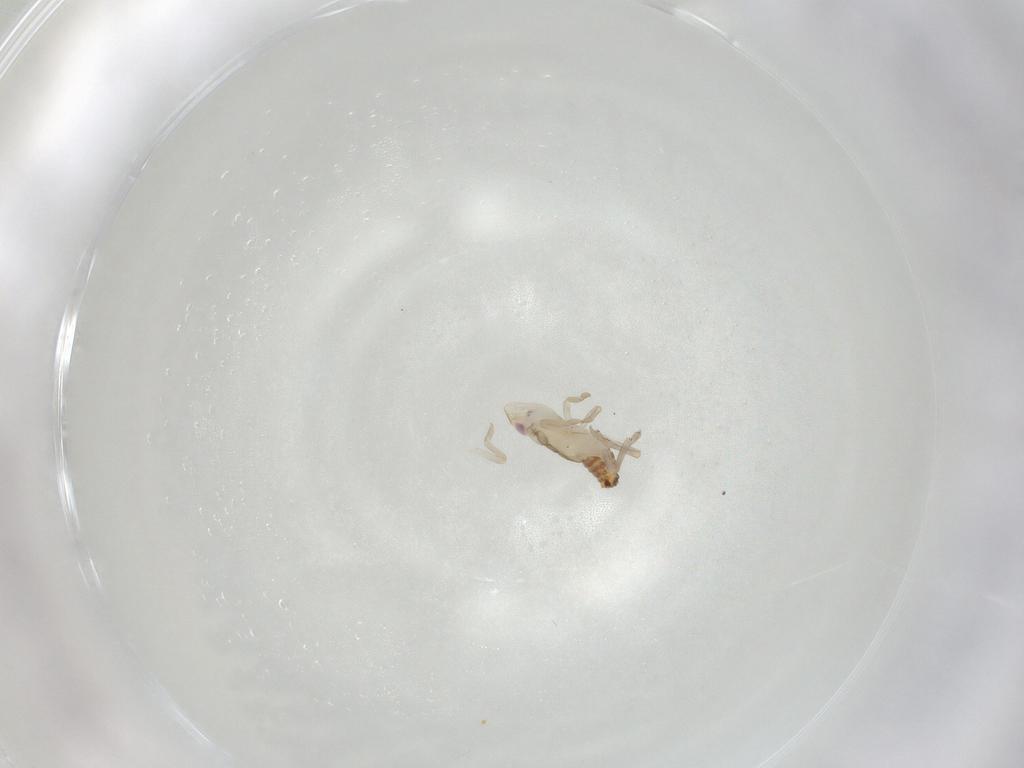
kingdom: Animalia
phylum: Arthropoda
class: Insecta
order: Hemiptera
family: Tropiduchidae
